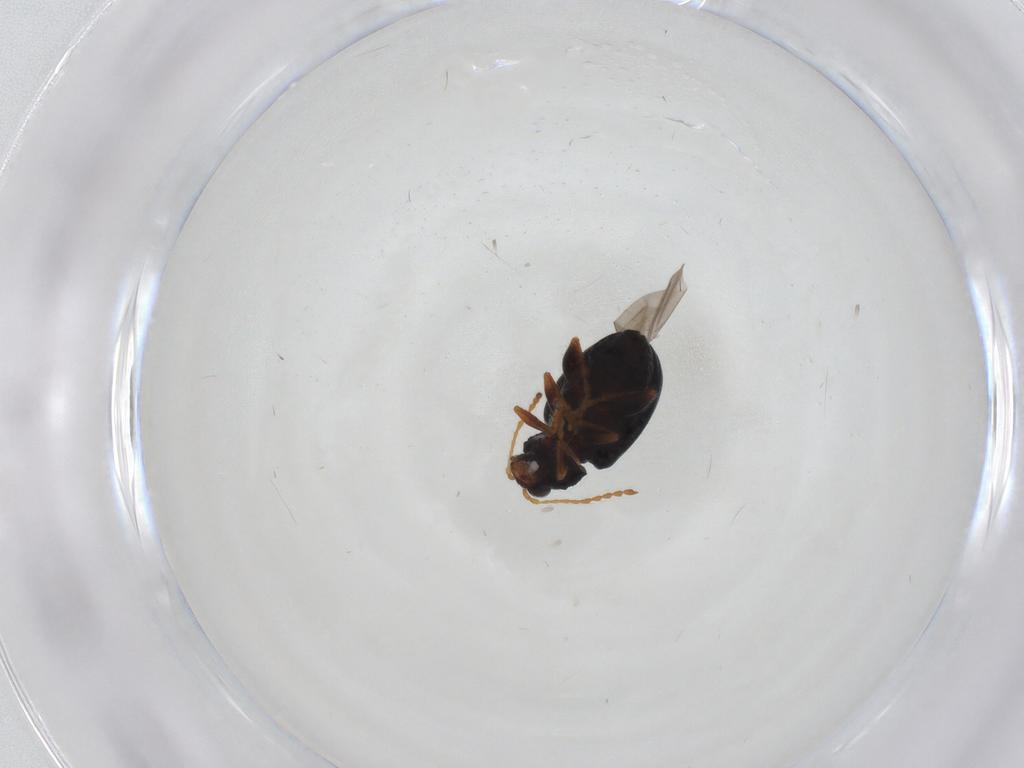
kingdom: Animalia
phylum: Arthropoda
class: Insecta
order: Coleoptera
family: Chrysomelidae
